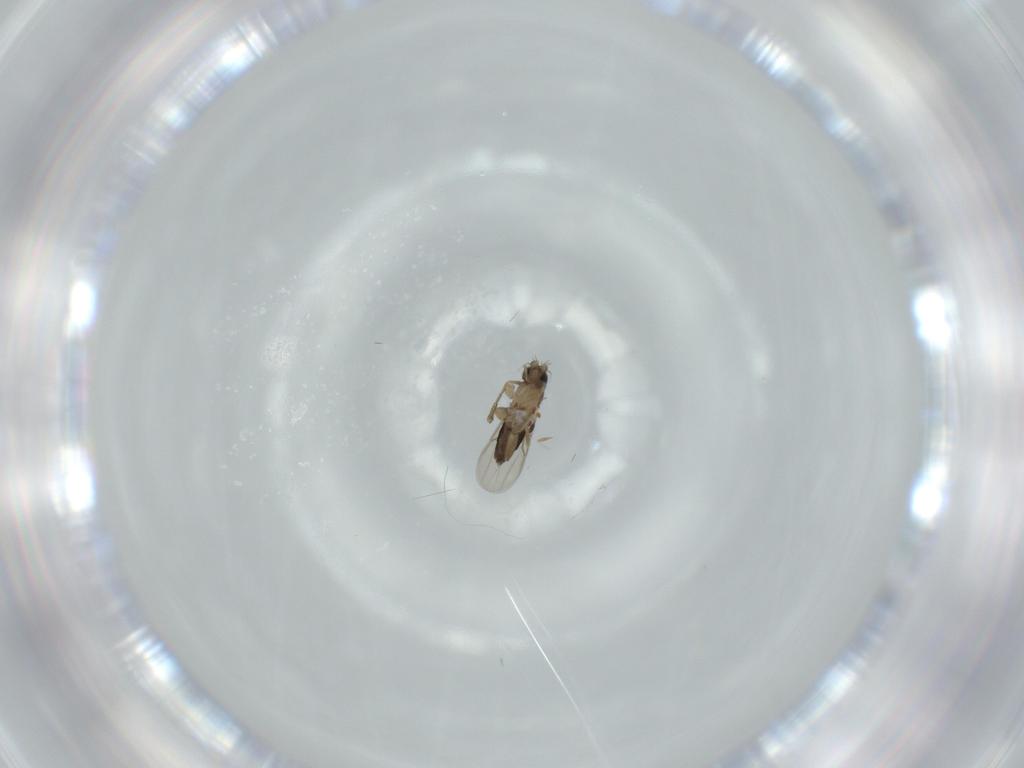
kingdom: Animalia
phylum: Arthropoda
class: Insecta
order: Diptera
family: Phoridae
